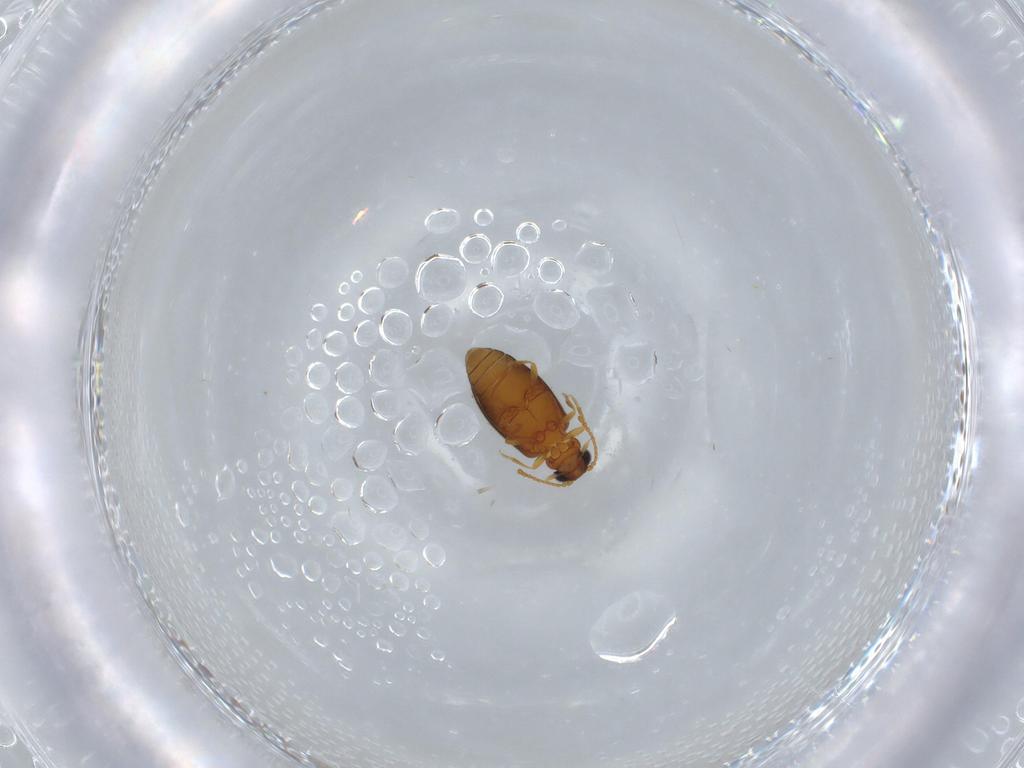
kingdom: Animalia
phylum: Arthropoda
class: Insecta
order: Coleoptera
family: Aderidae
